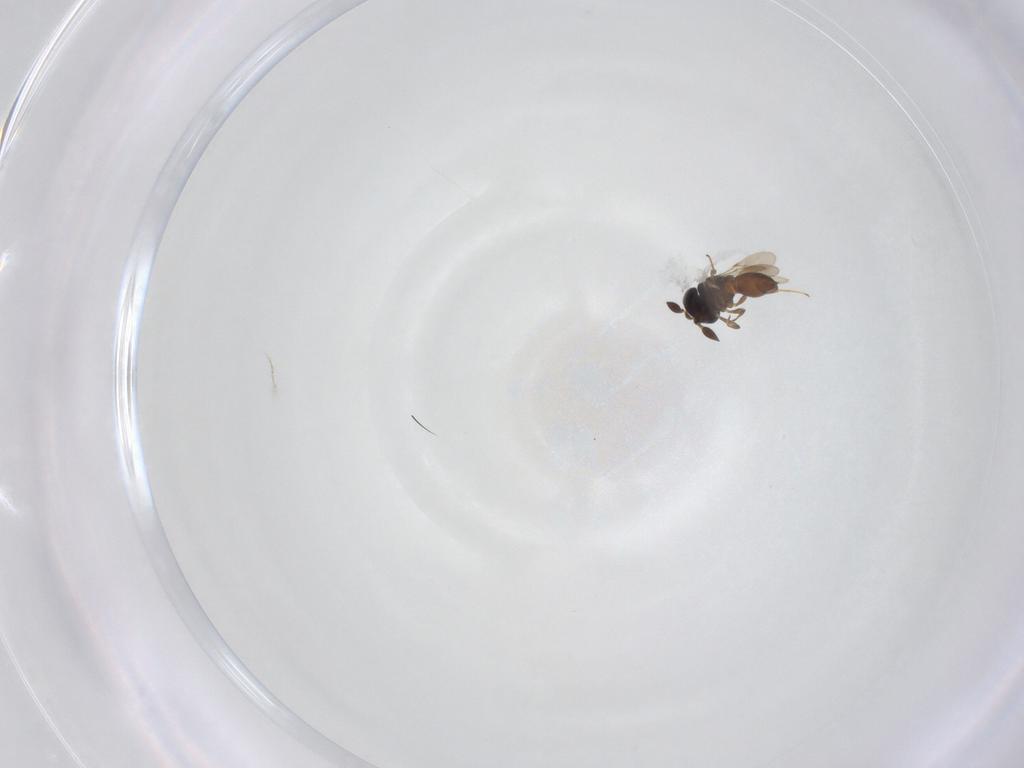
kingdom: Animalia
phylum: Arthropoda
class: Insecta
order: Hymenoptera
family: Scelionidae
